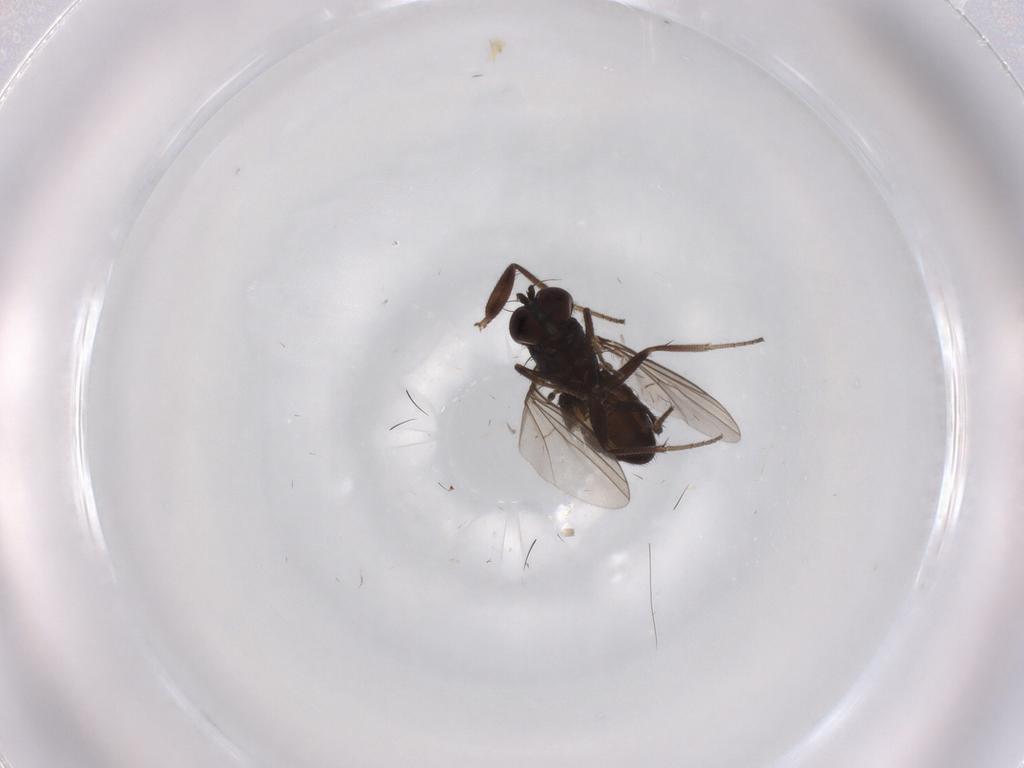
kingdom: Animalia
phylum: Arthropoda
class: Insecta
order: Diptera
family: Dolichopodidae
